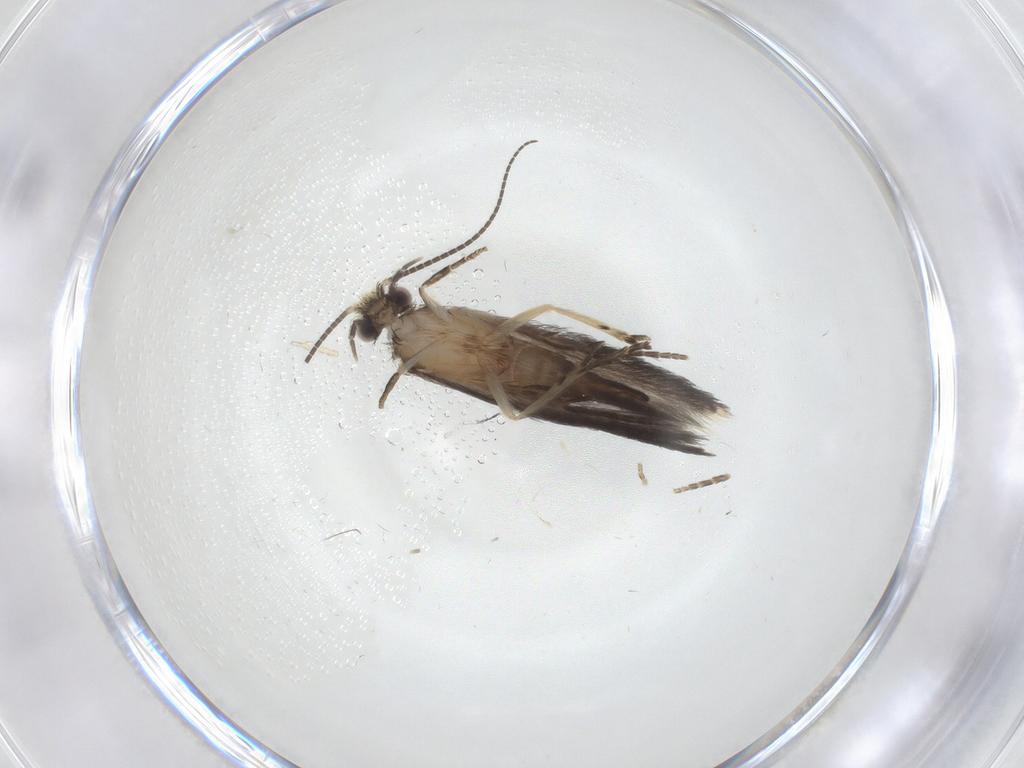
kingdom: Animalia
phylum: Arthropoda
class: Insecta
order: Trichoptera
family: Hydroptilidae
